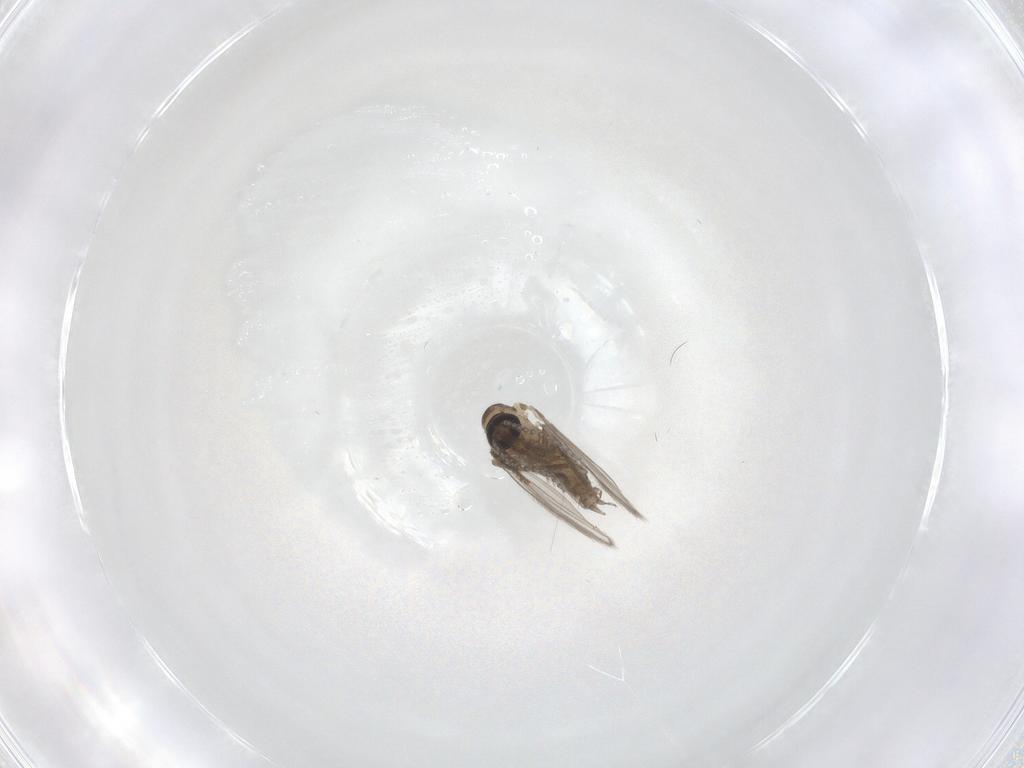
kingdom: Animalia
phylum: Arthropoda
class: Insecta
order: Diptera
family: Psychodidae
